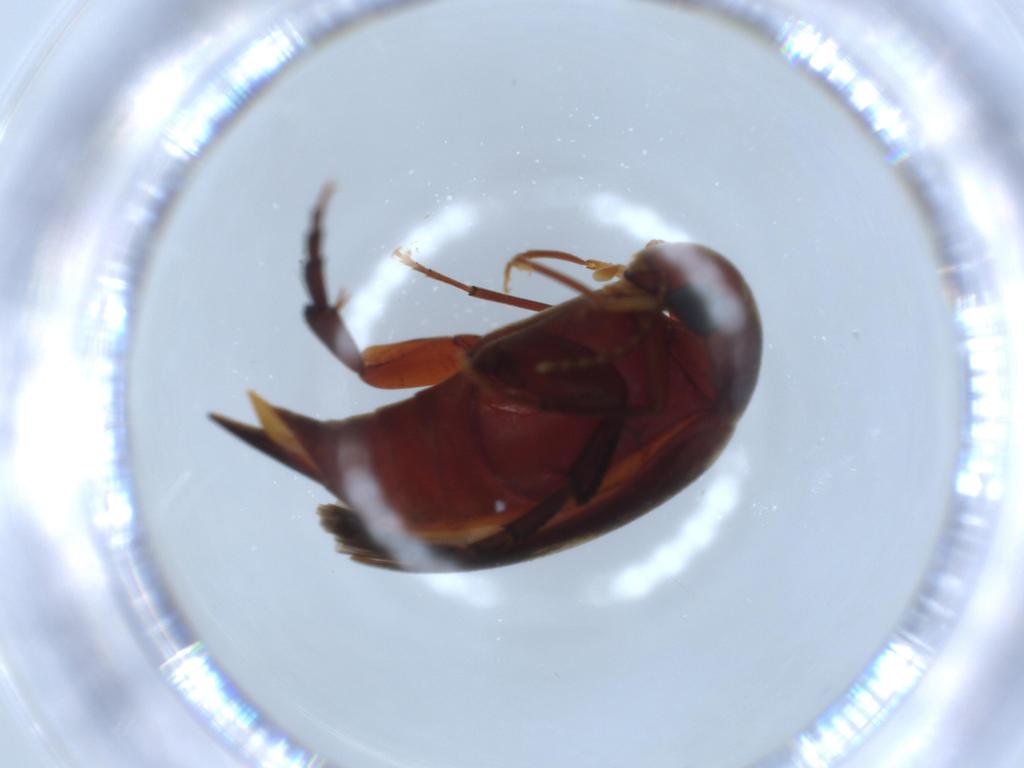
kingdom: Animalia
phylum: Arthropoda
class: Insecta
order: Coleoptera
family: Mordellidae
